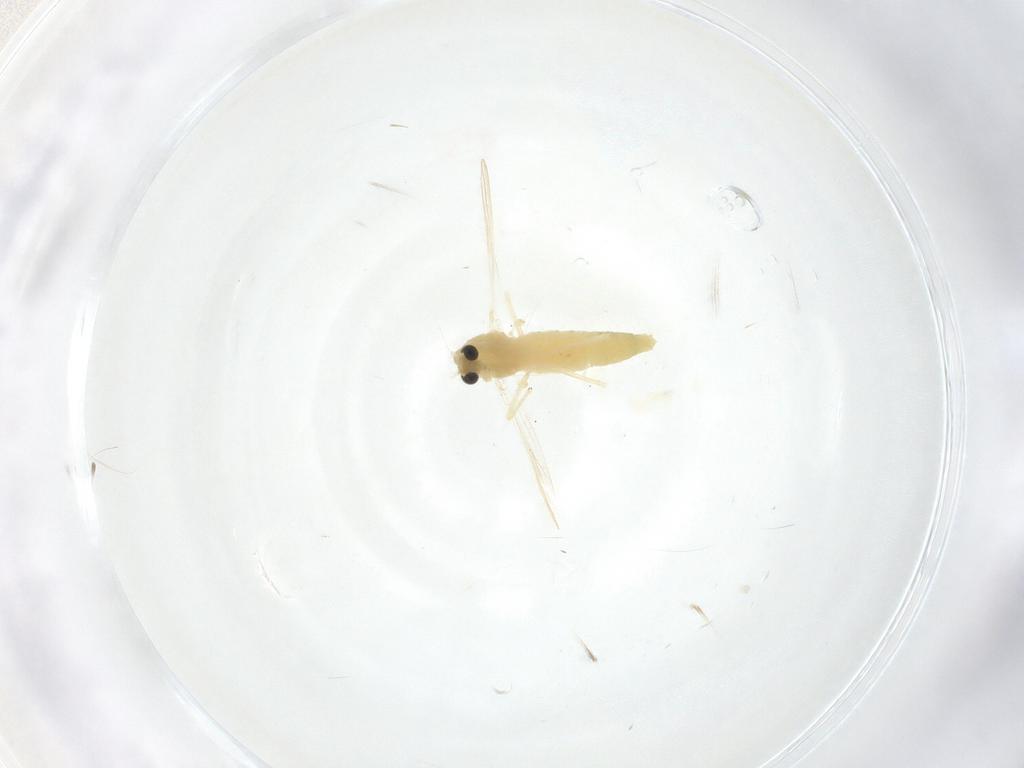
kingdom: Animalia
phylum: Arthropoda
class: Insecta
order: Diptera
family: Chironomidae
